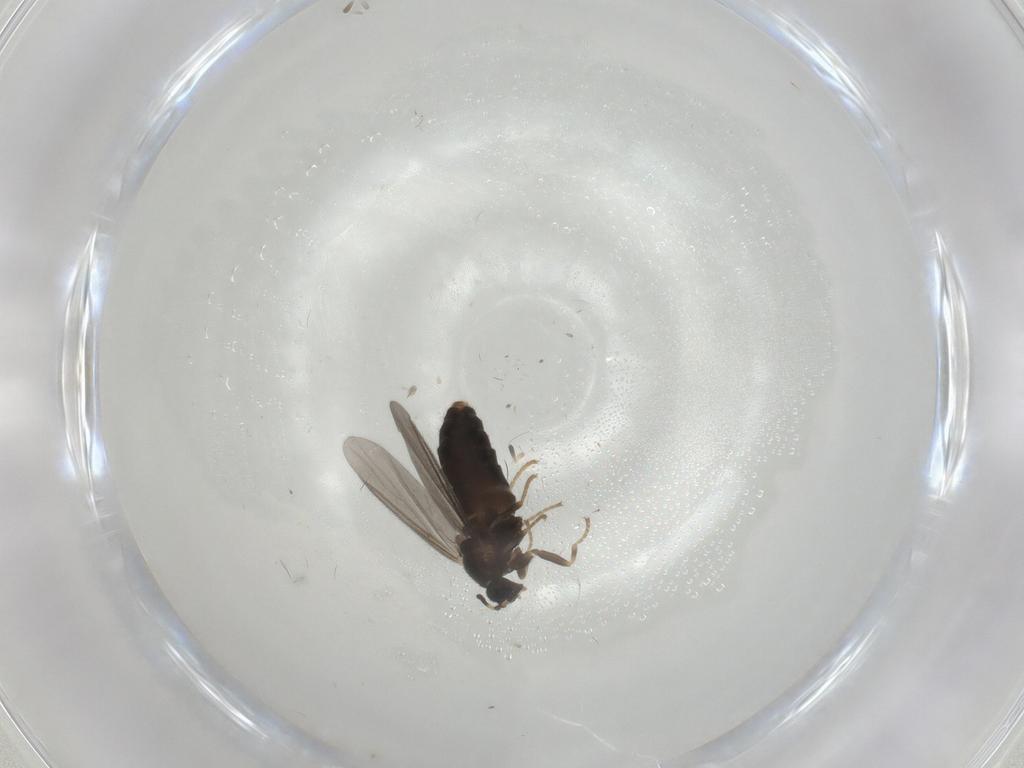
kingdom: Animalia
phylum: Arthropoda
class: Insecta
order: Diptera
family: Scatopsidae
